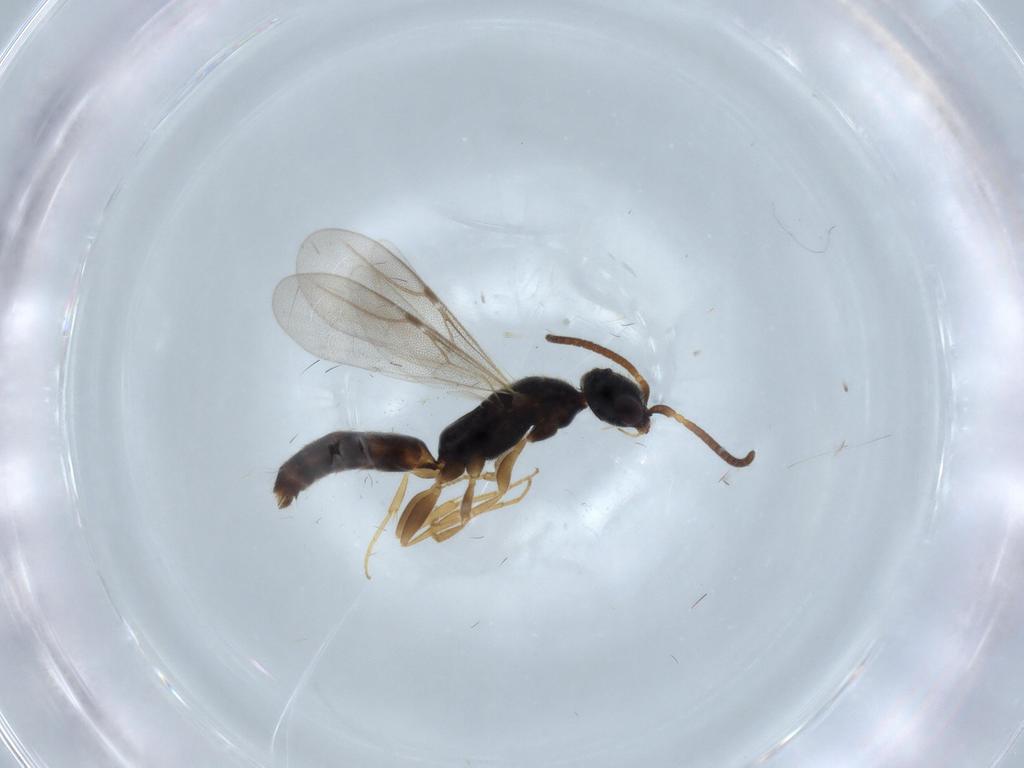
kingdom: Animalia
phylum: Arthropoda
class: Insecta
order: Hymenoptera
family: Bethylidae
